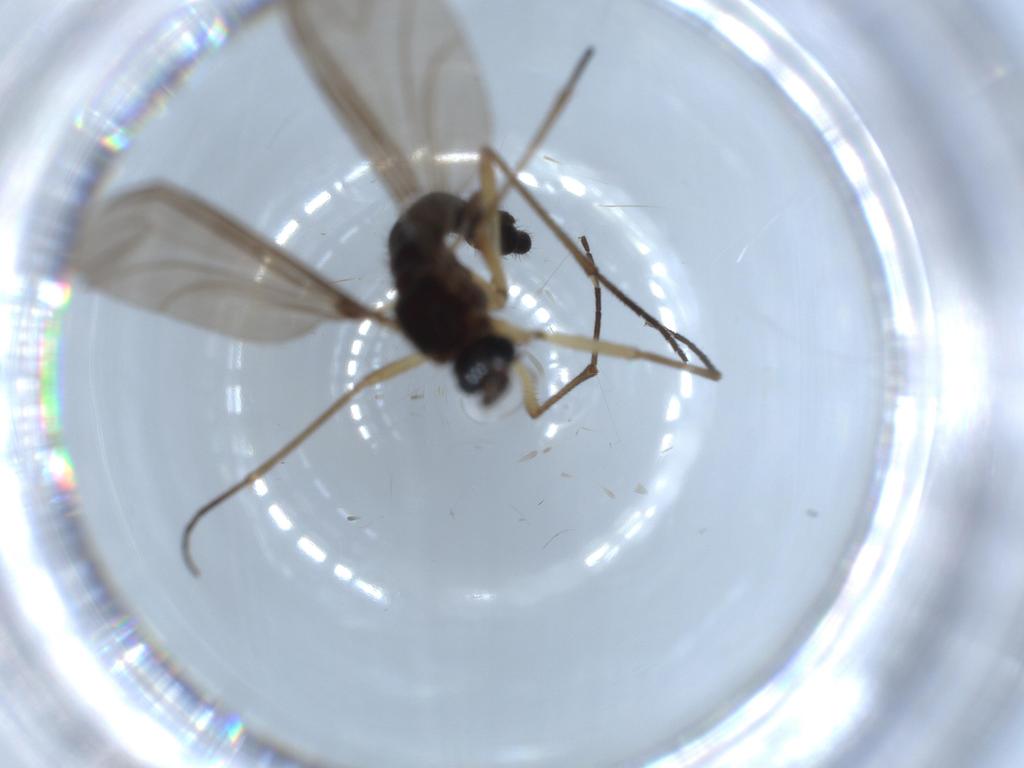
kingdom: Animalia
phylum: Arthropoda
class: Insecta
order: Diptera
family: Sciaridae
